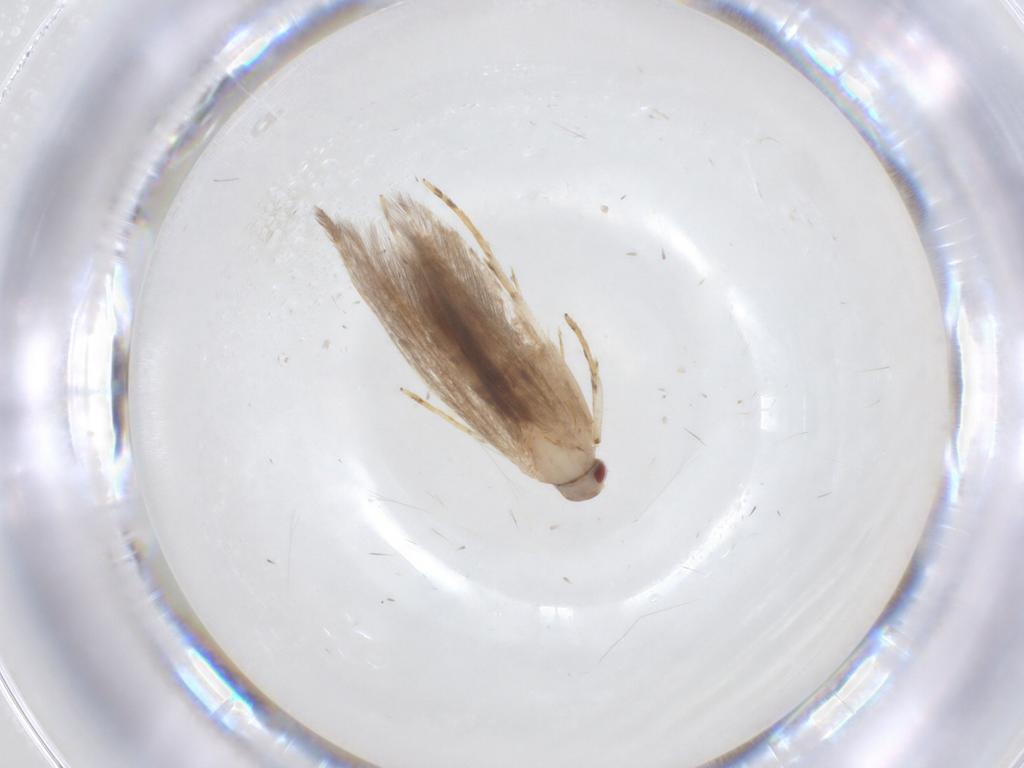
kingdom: Animalia
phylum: Arthropoda
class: Insecta
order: Lepidoptera
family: Cosmopterigidae
